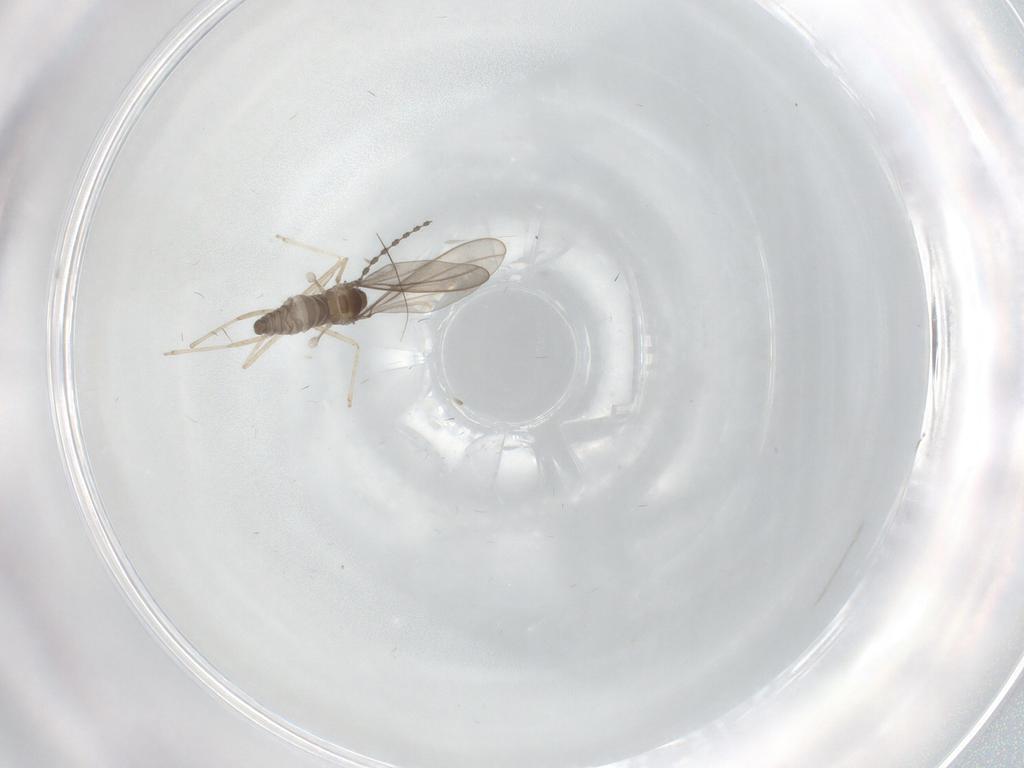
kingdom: Animalia
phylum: Arthropoda
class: Insecta
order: Diptera
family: Cecidomyiidae
